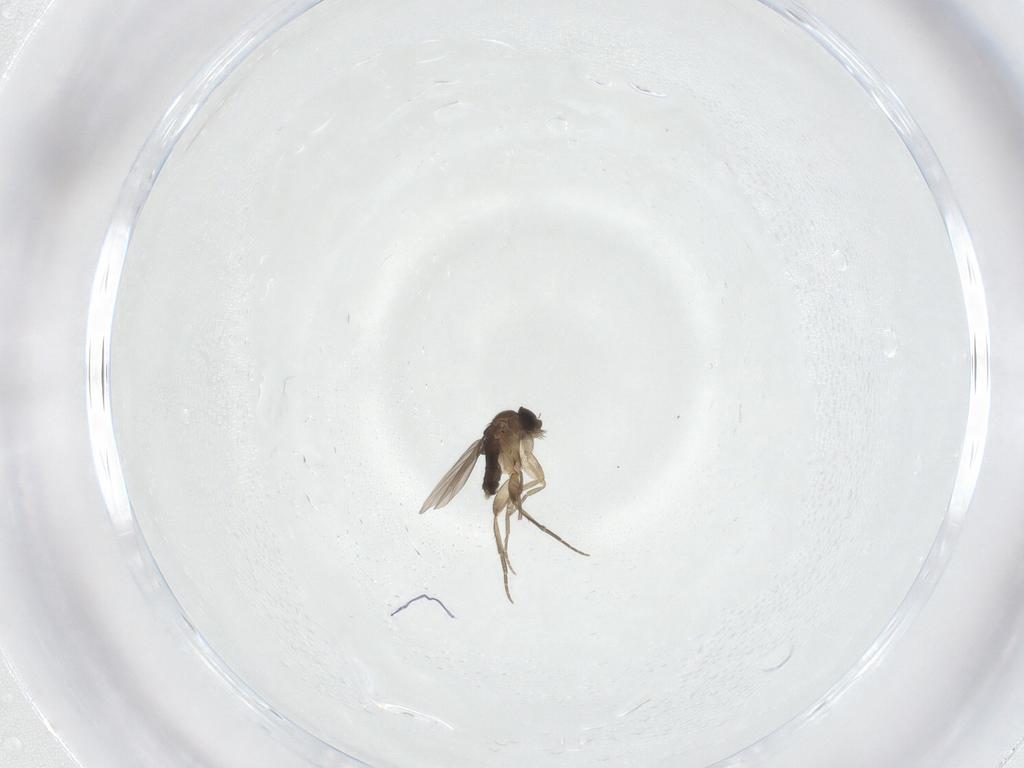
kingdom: Animalia
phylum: Arthropoda
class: Insecta
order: Diptera
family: Phoridae
